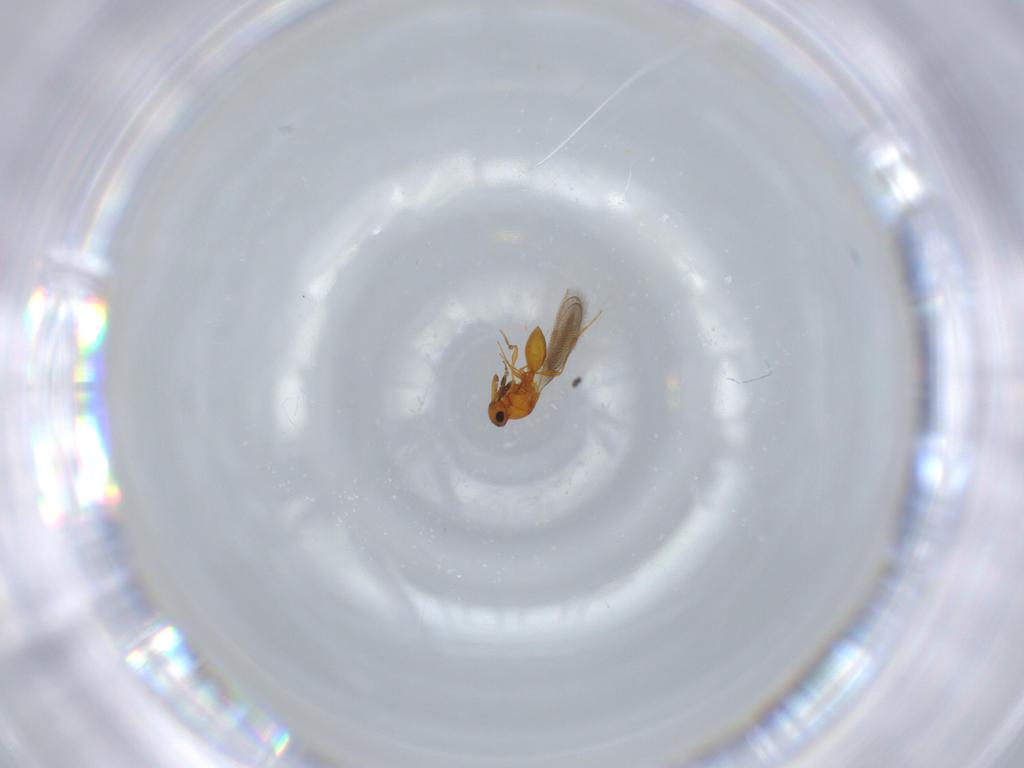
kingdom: Animalia
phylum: Arthropoda
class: Insecta
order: Hymenoptera
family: Platygastridae
